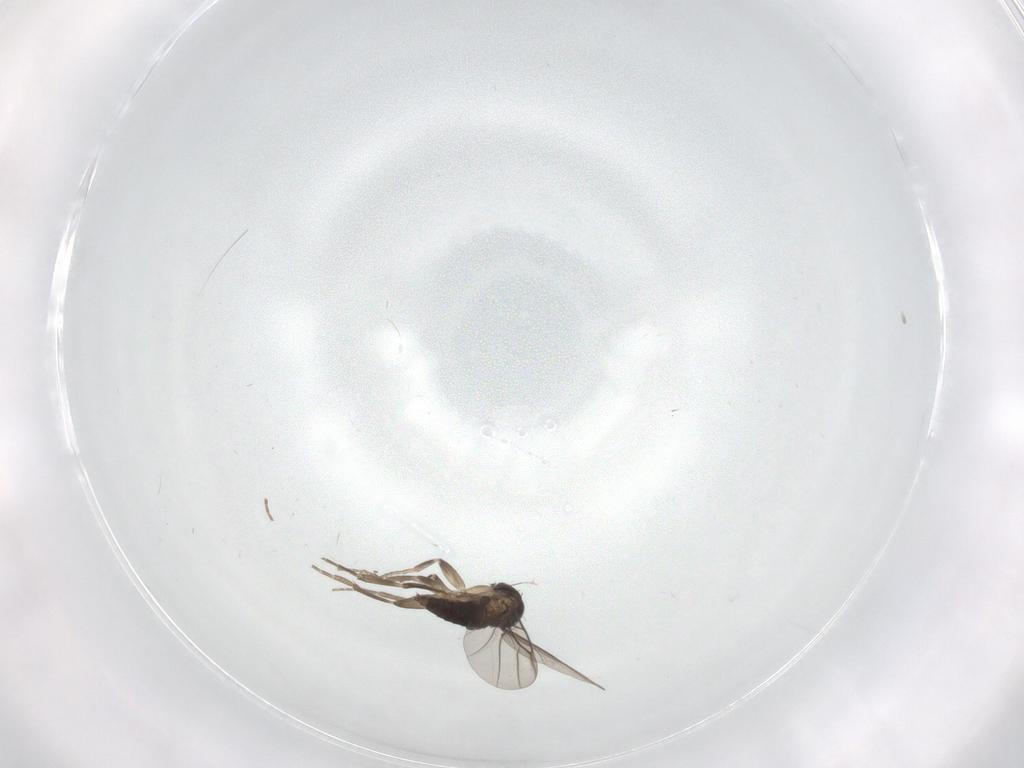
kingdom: Animalia
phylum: Arthropoda
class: Insecta
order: Diptera
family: Phoridae
